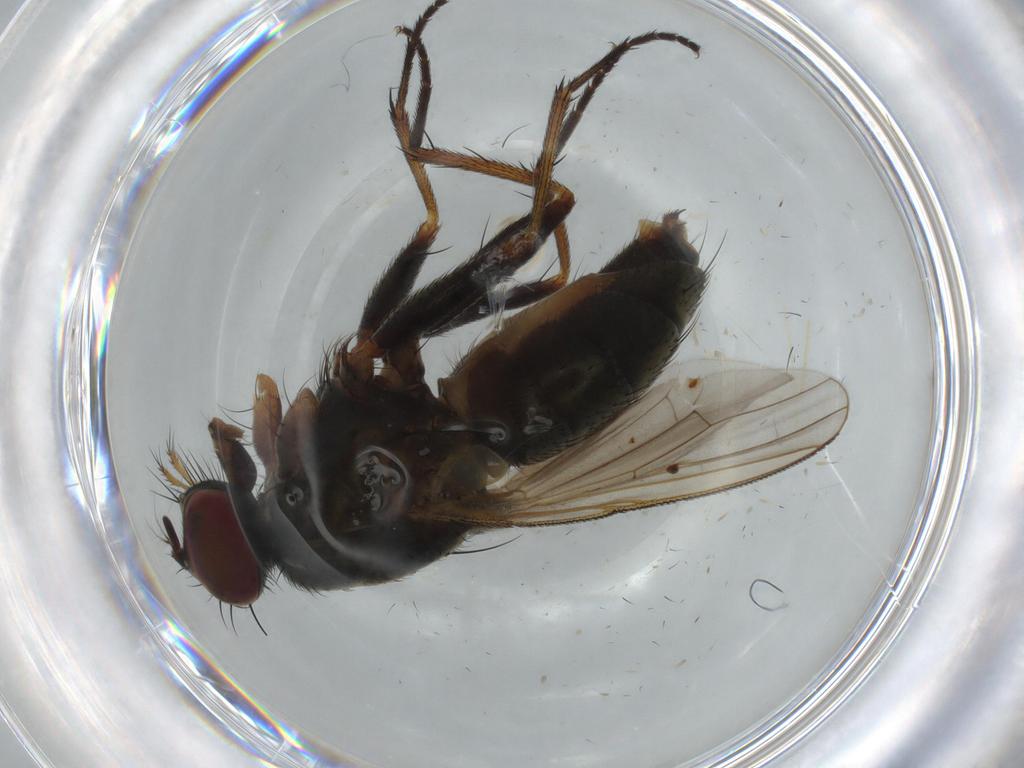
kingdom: Animalia
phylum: Arthropoda
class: Insecta
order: Diptera
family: Muscidae
